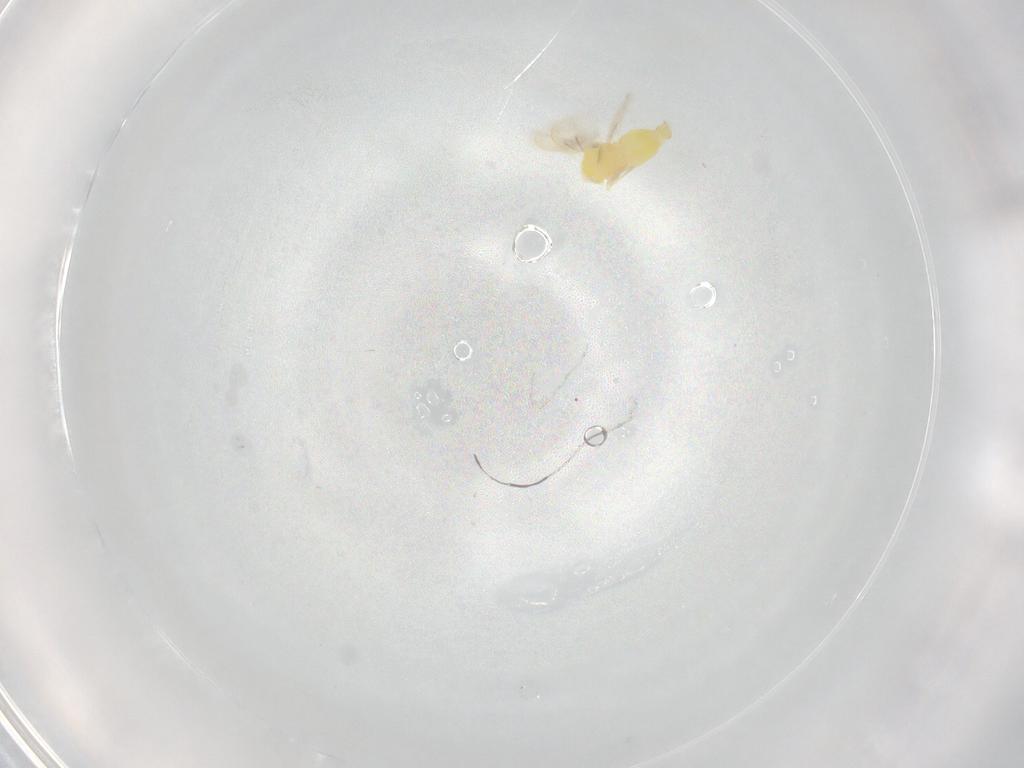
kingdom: Animalia
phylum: Arthropoda
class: Insecta
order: Hemiptera
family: Aleyrodidae
